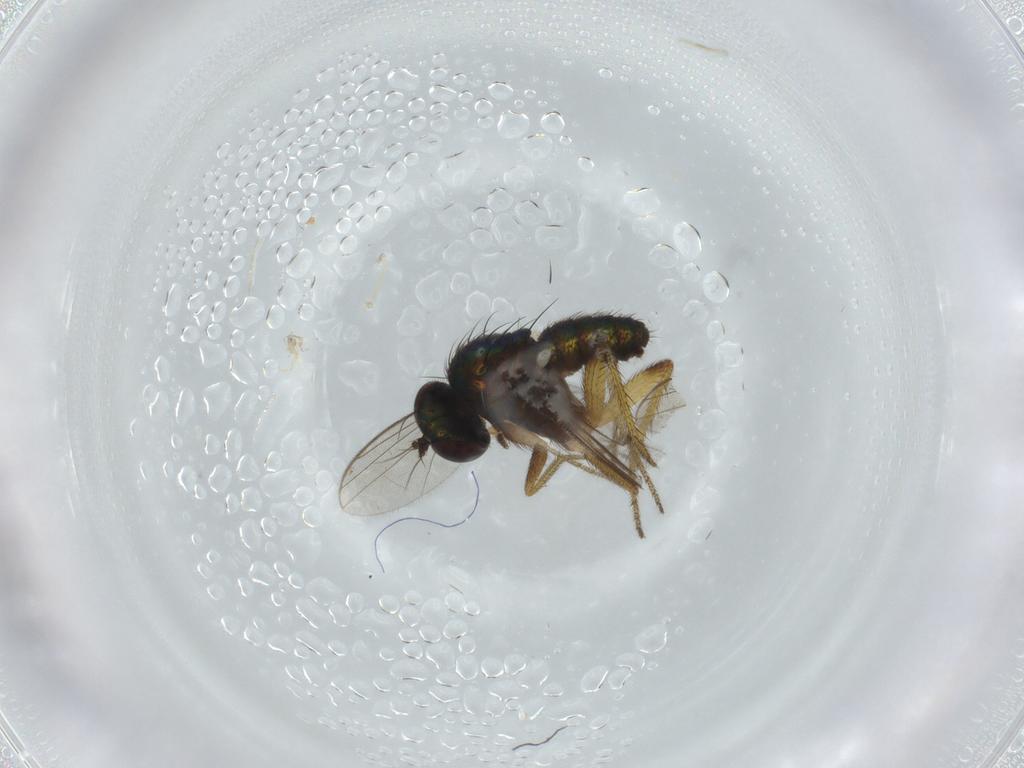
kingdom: Animalia
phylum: Arthropoda
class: Insecta
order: Diptera
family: Dolichopodidae
